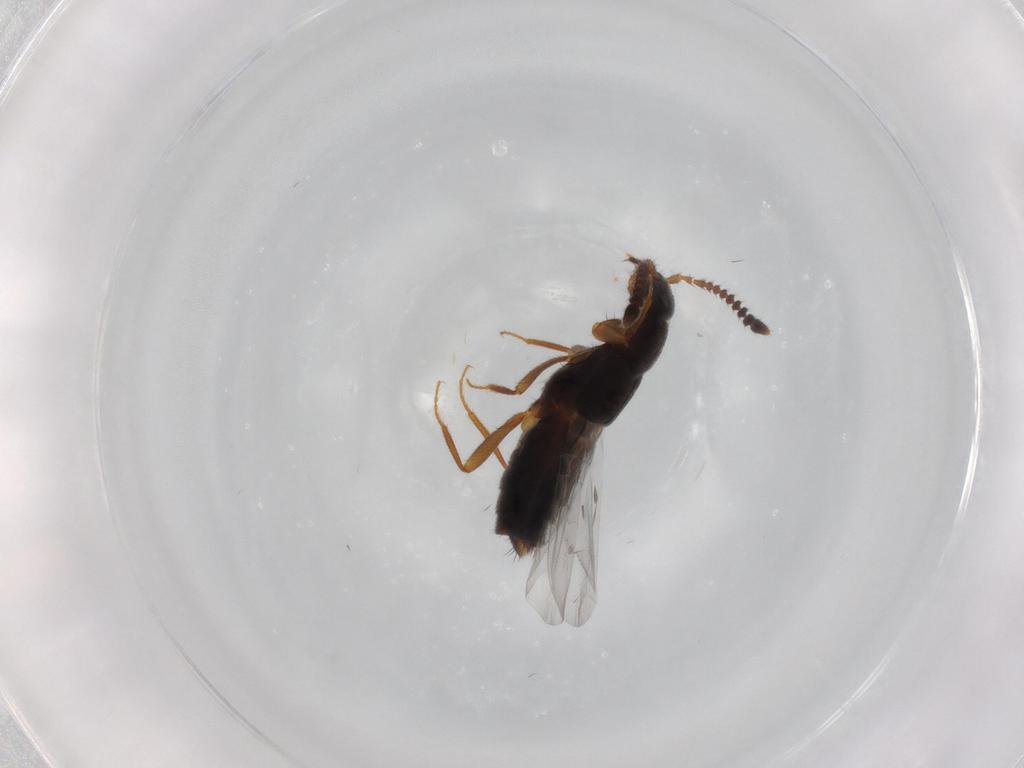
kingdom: Animalia
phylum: Arthropoda
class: Insecta
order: Coleoptera
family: Staphylinidae
